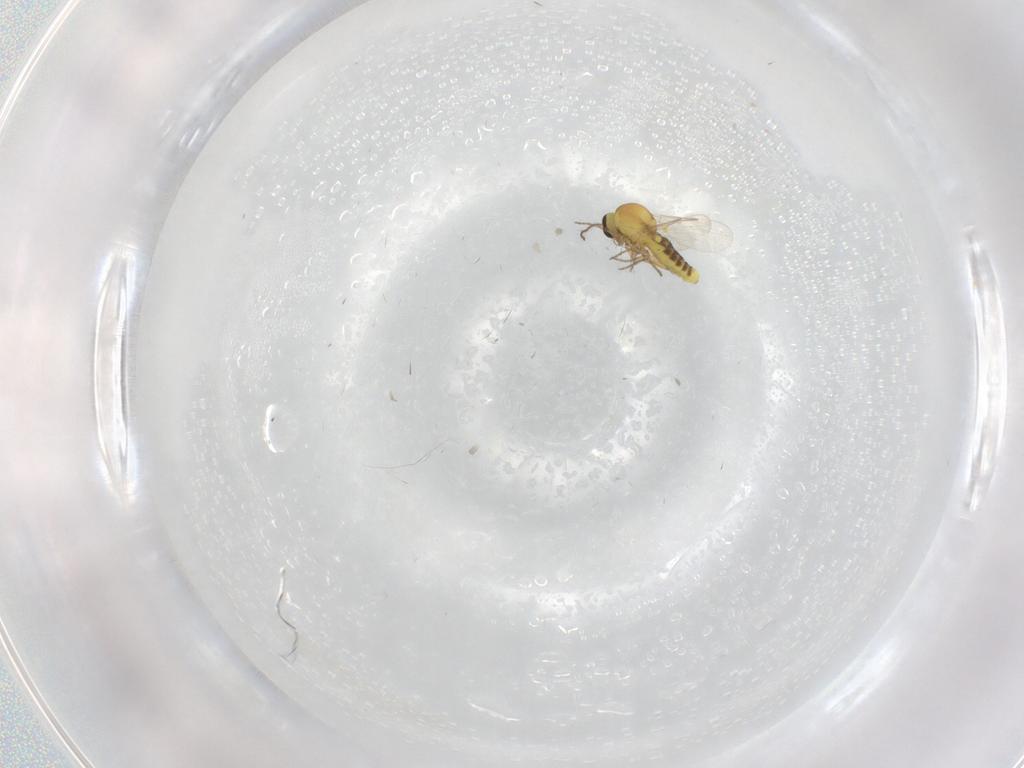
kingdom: Animalia
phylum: Arthropoda
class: Insecta
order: Diptera
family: Ceratopogonidae
